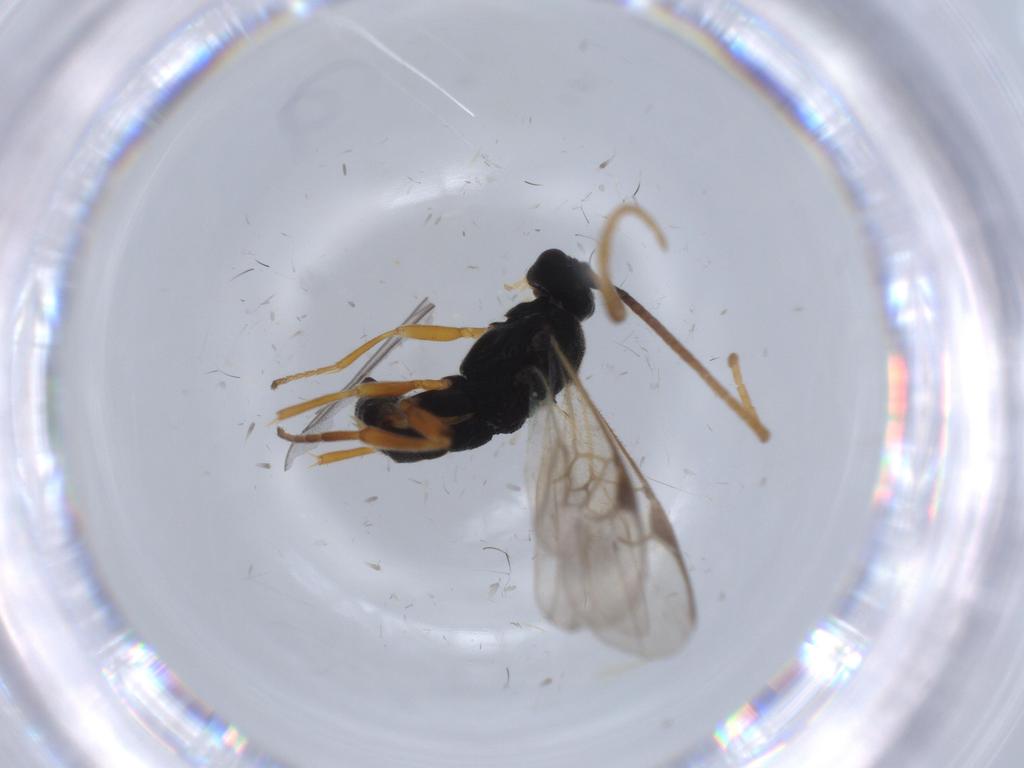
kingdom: Animalia
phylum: Arthropoda
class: Insecta
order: Hymenoptera
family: Braconidae
